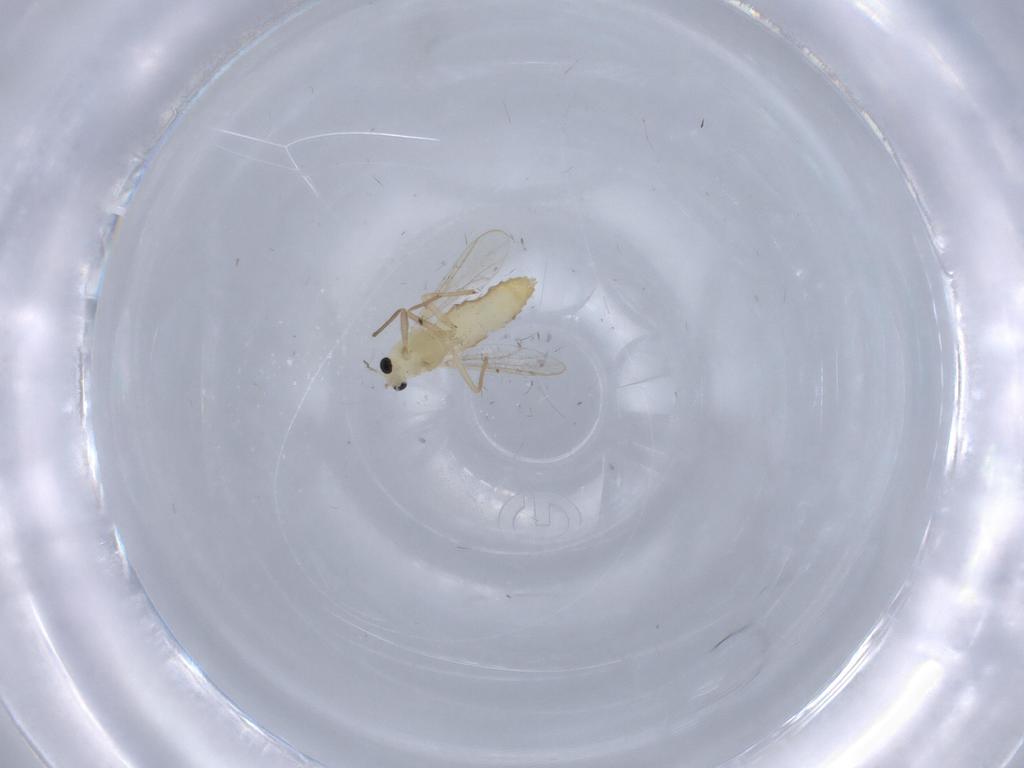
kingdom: Animalia
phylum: Arthropoda
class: Insecta
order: Diptera
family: Chironomidae
